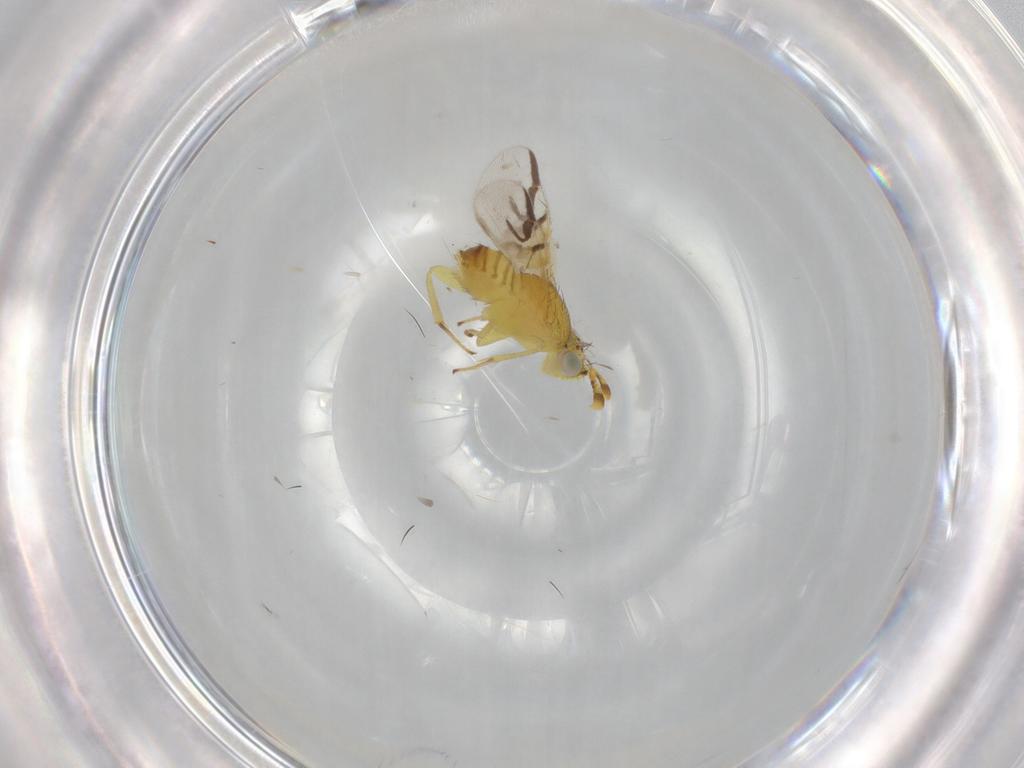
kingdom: Animalia
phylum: Arthropoda
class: Insecta
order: Hymenoptera
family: Aphelinidae
